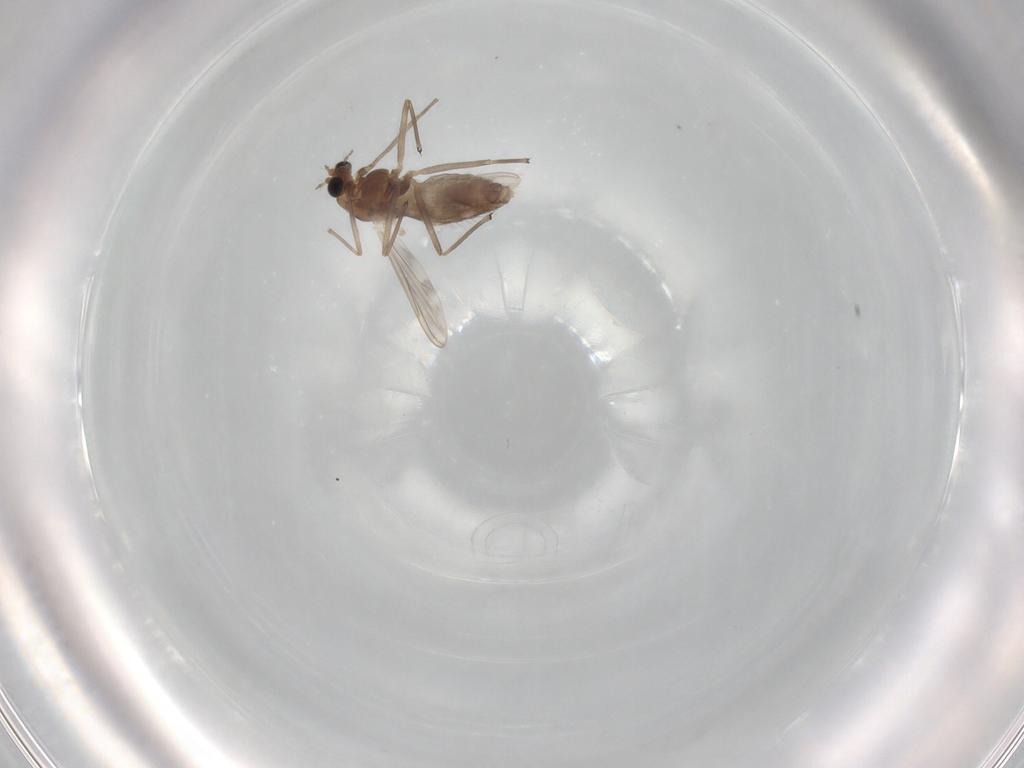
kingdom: Animalia
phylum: Arthropoda
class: Insecta
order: Diptera
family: Chironomidae
